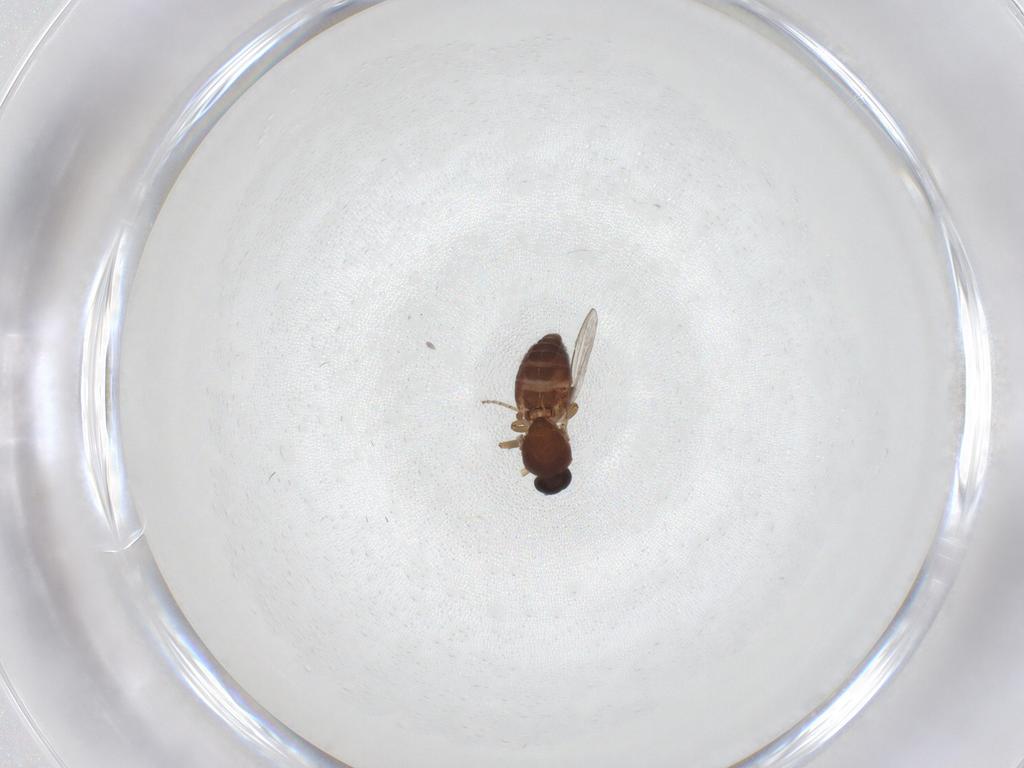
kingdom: Animalia
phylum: Arthropoda
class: Insecta
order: Diptera
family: Ceratopogonidae
